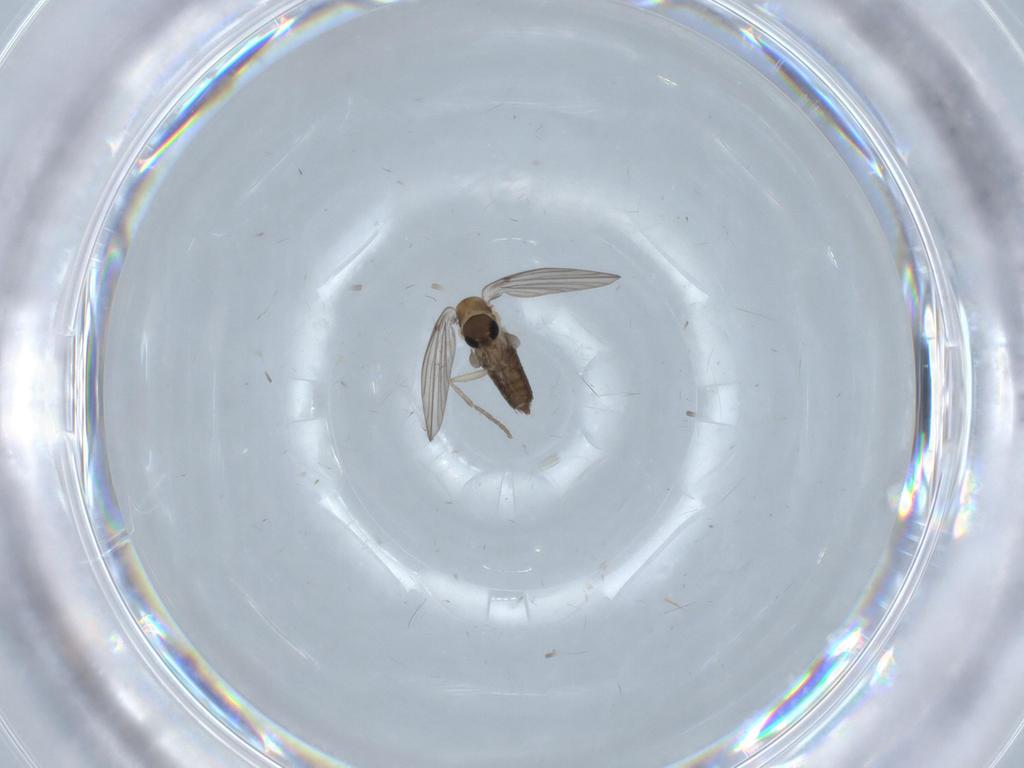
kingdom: Animalia
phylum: Arthropoda
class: Insecta
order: Diptera
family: Psychodidae
